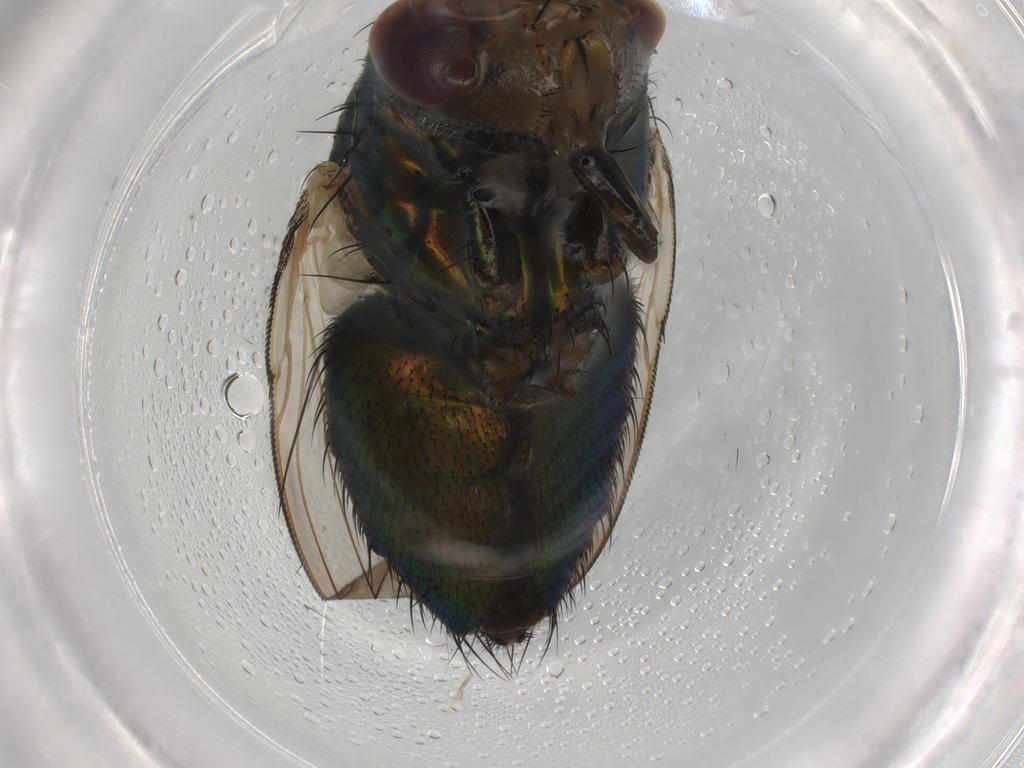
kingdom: Animalia
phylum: Arthropoda
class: Insecta
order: Diptera
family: Calliphoridae
